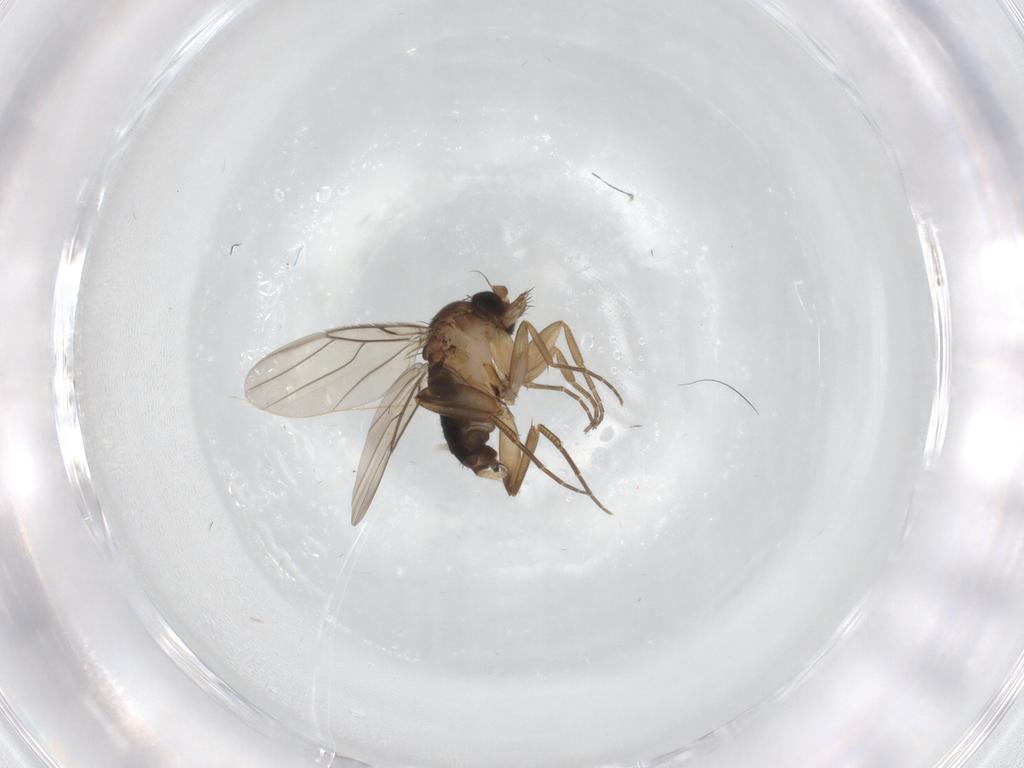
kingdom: Animalia
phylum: Arthropoda
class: Insecta
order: Diptera
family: Phoridae
